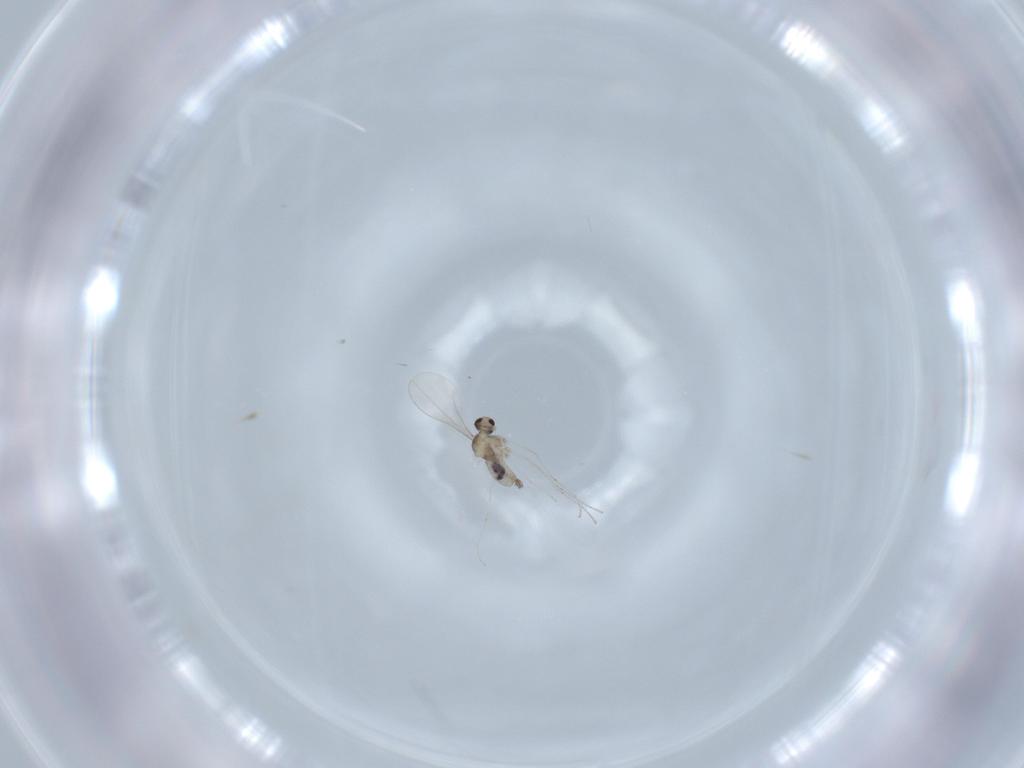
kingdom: Animalia
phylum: Arthropoda
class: Insecta
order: Diptera
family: Cecidomyiidae
